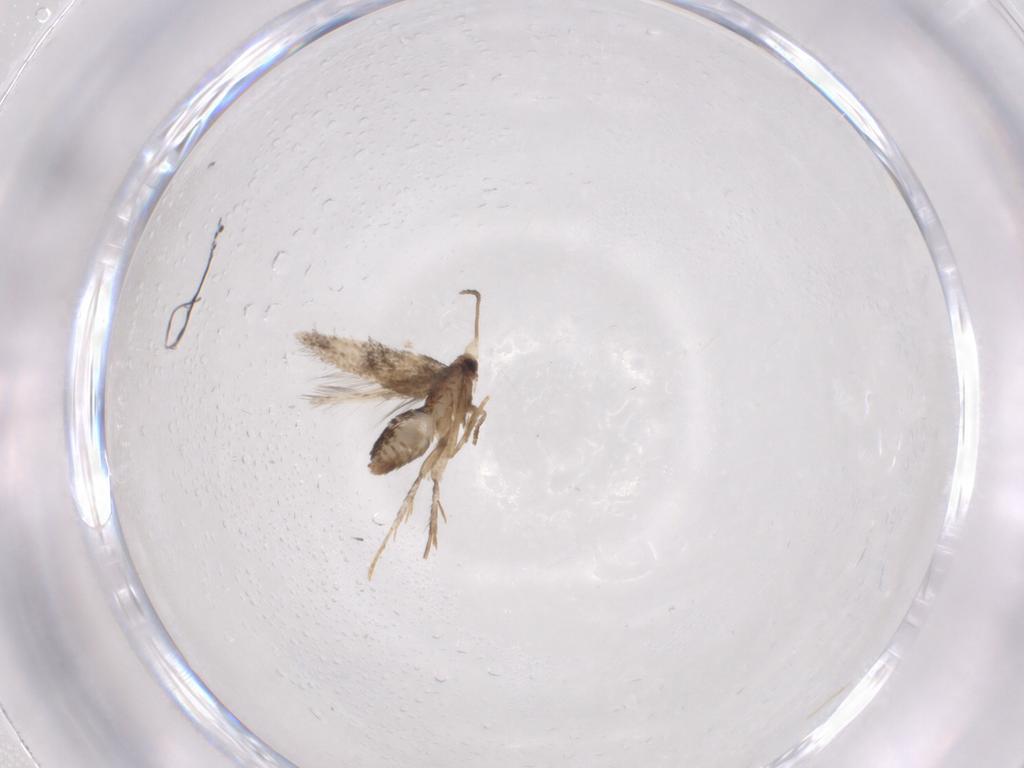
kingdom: Animalia
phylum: Arthropoda
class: Insecta
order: Lepidoptera
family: Nepticulidae
